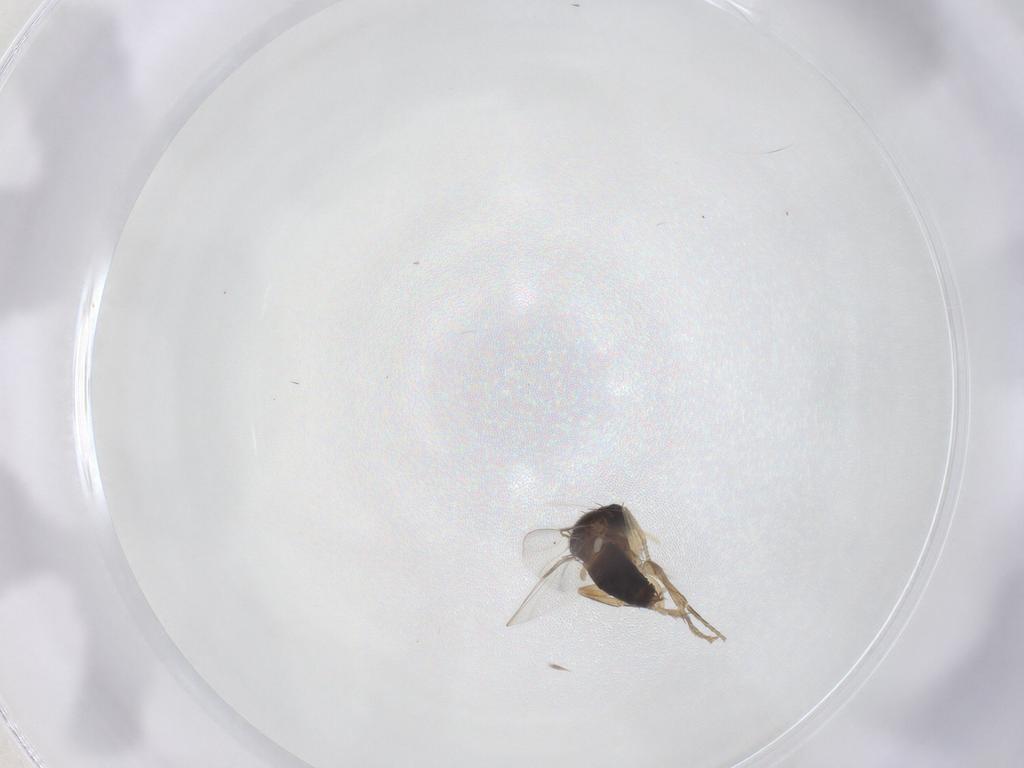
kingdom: Animalia
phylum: Arthropoda
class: Insecta
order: Diptera
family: Phoridae
